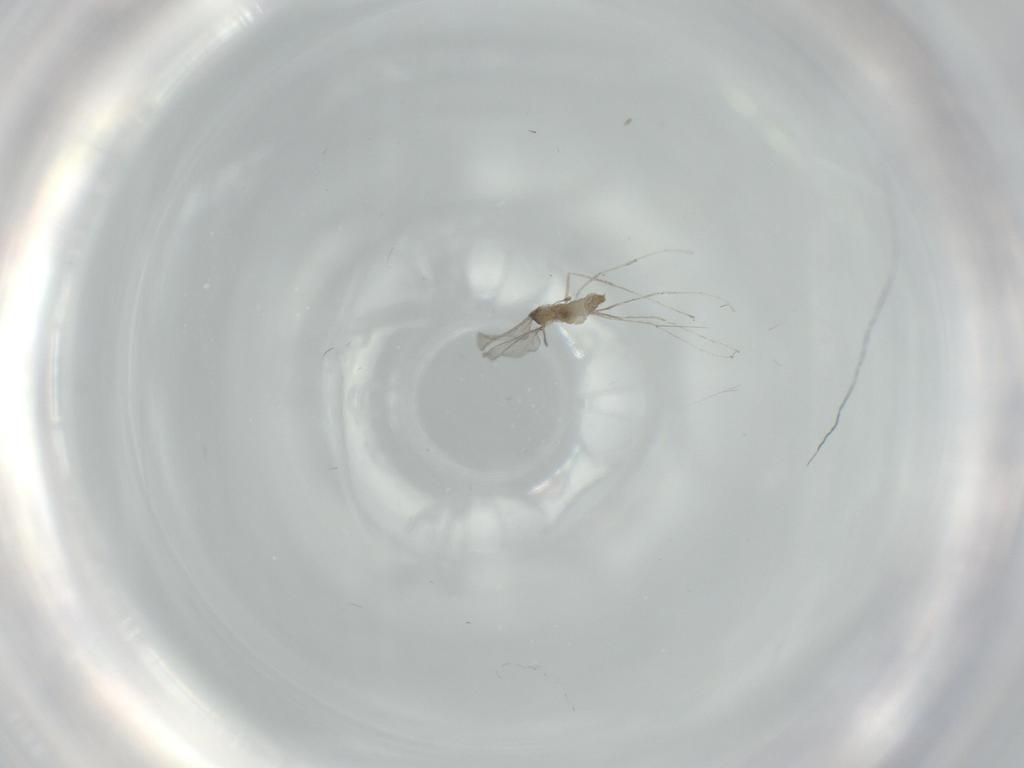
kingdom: Animalia
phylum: Arthropoda
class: Insecta
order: Diptera
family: Cecidomyiidae
